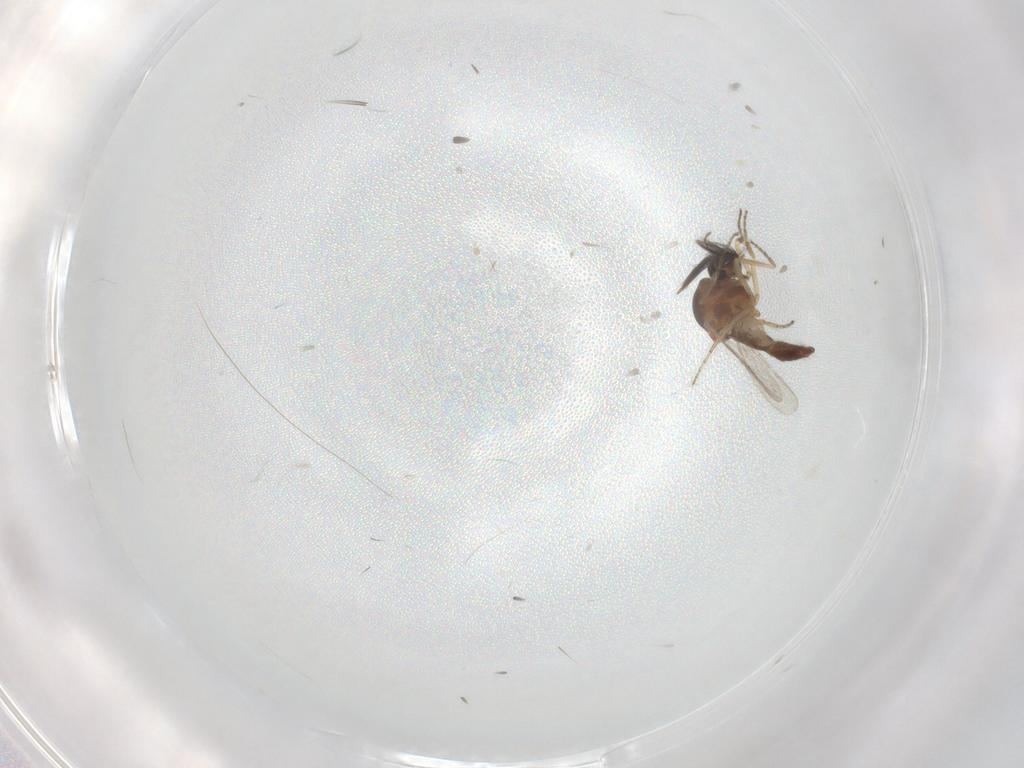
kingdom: Animalia
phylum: Arthropoda
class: Insecta
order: Diptera
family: Ceratopogonidae
